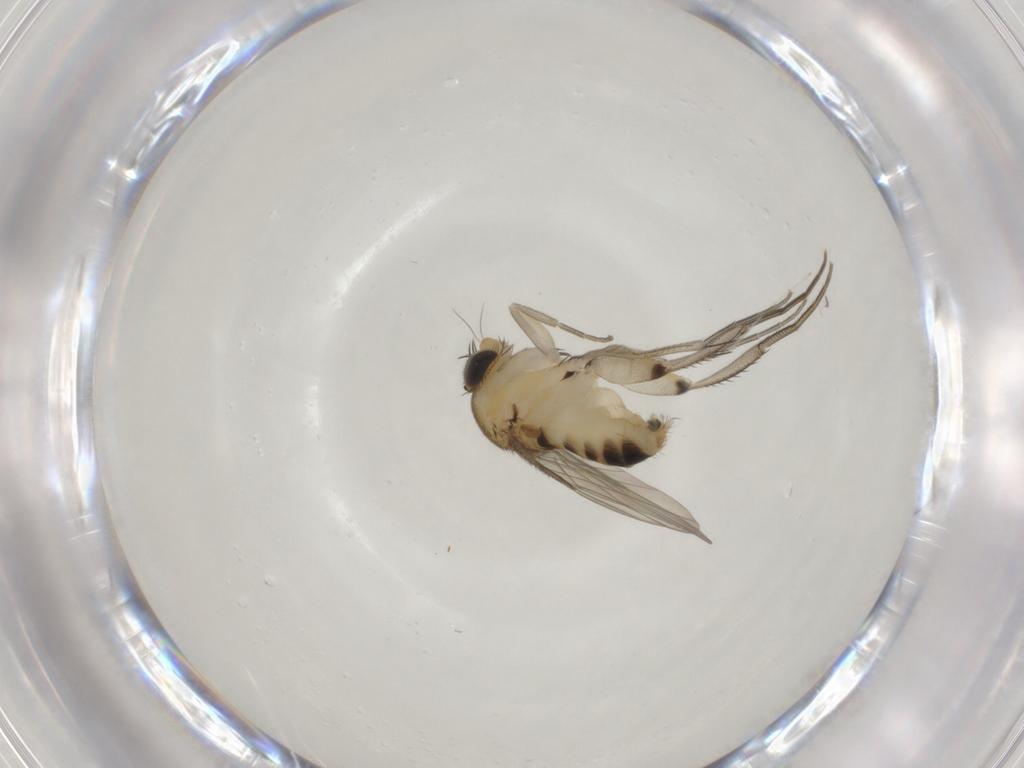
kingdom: Animalia
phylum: Arthropoda
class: Insecta
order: Diptera
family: Phoridae
